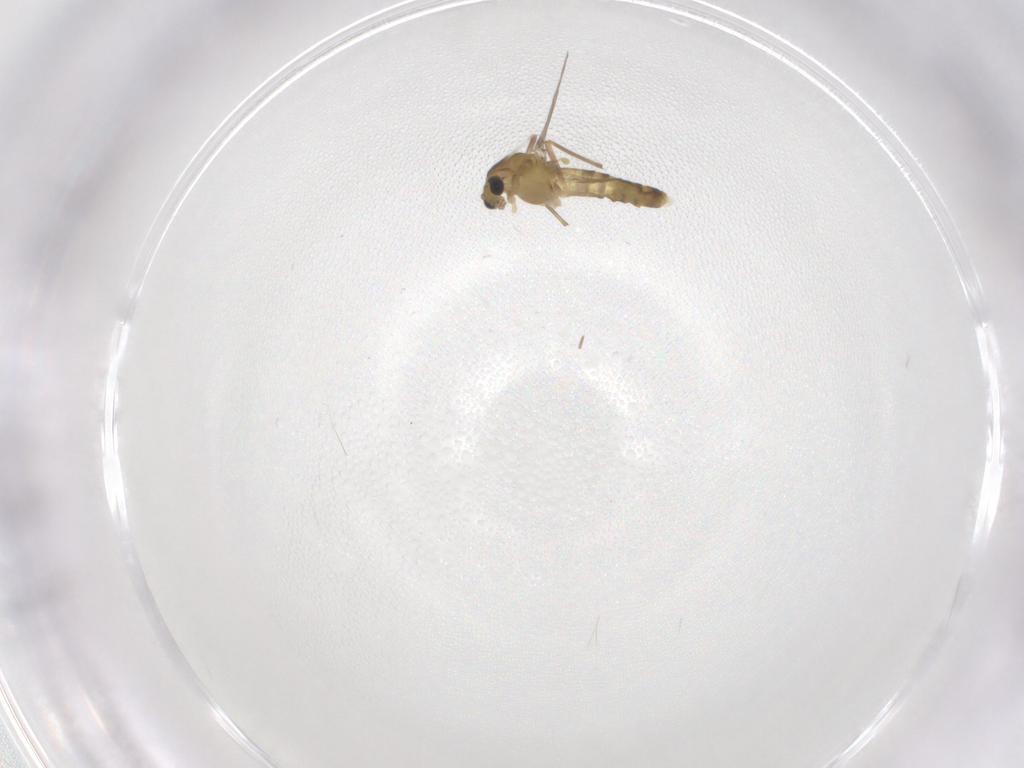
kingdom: Animalia
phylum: Arthropoda
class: Insecta
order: Diptera
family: Chironomidae
